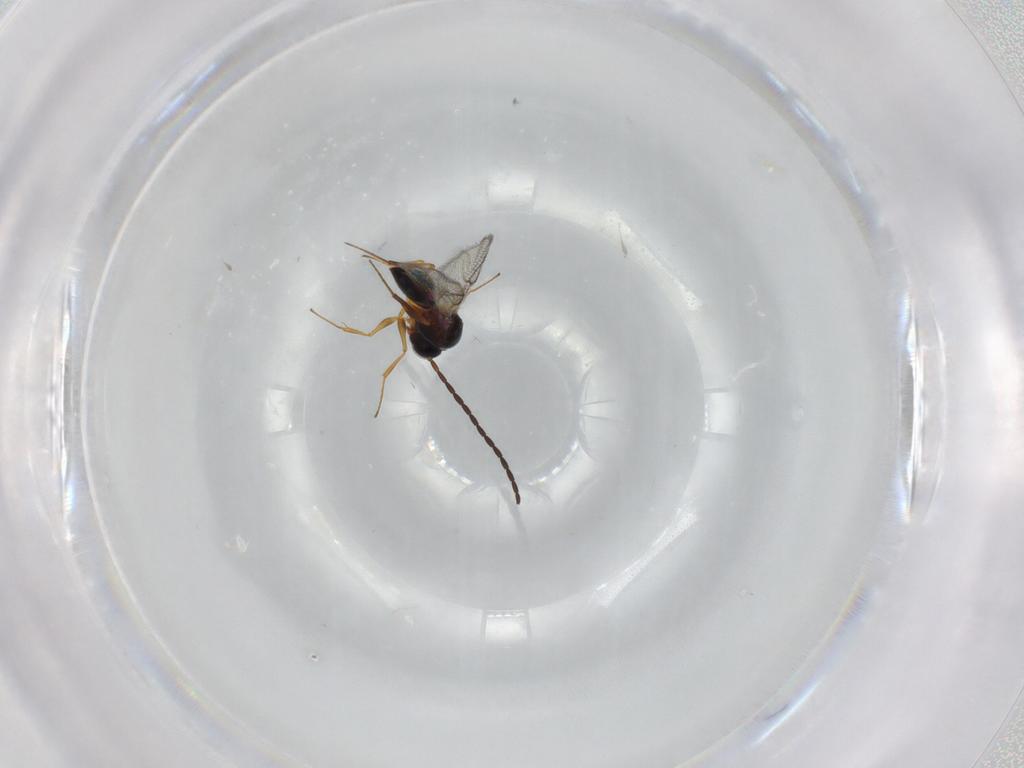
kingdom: Animalia
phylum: Arthropoda
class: Insecta
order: Hymenoptera
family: Figitidae
